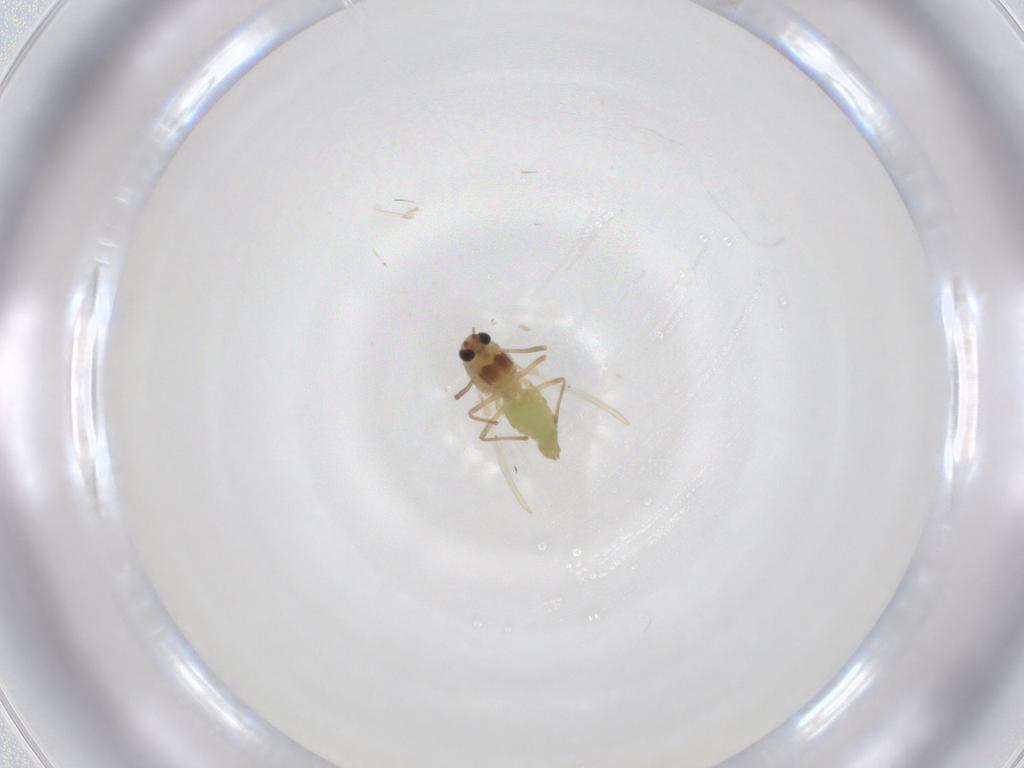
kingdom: Animalia
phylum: Arthropoda
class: Insecta
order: Diptera
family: Chironomidae
